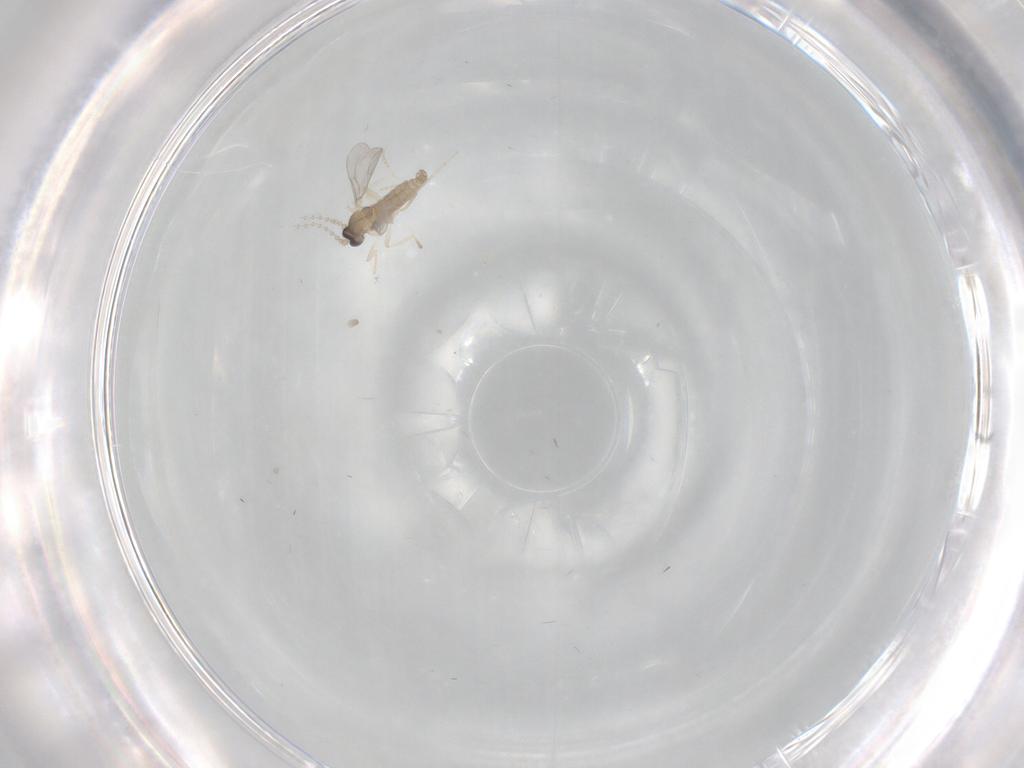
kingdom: Animalia
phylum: Arthropoda
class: Insecta
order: Diptera
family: Cecidomyiidae
